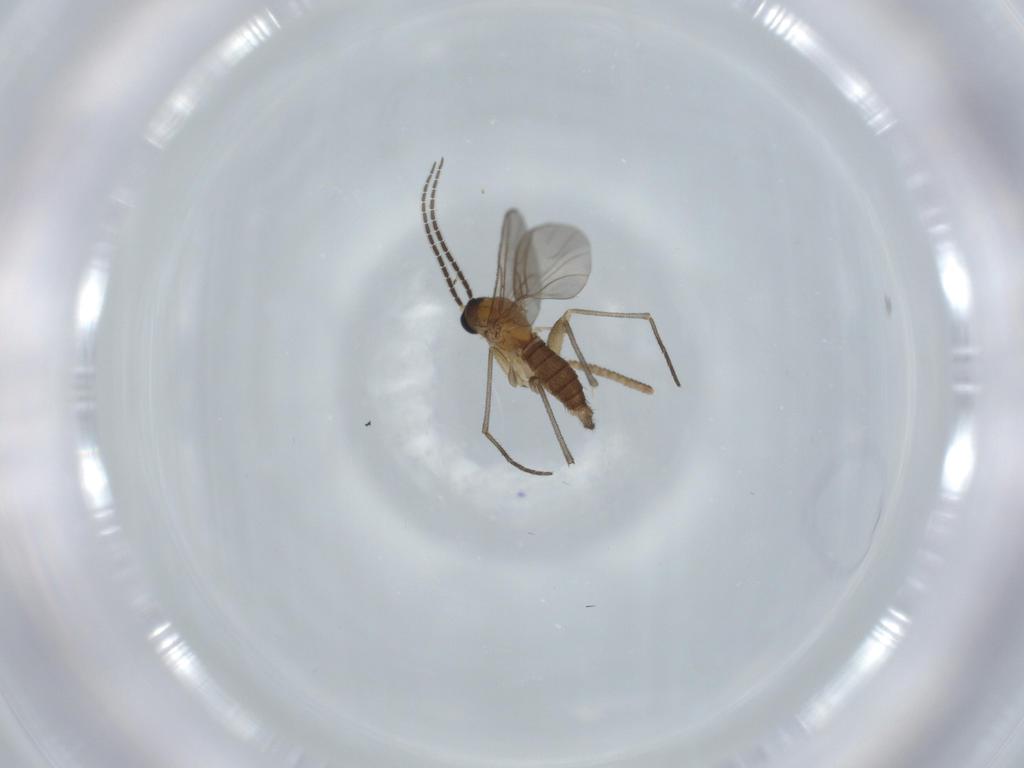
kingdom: Animalia
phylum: Arthropoda
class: Insecta
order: Diptera
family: Sciaridae
